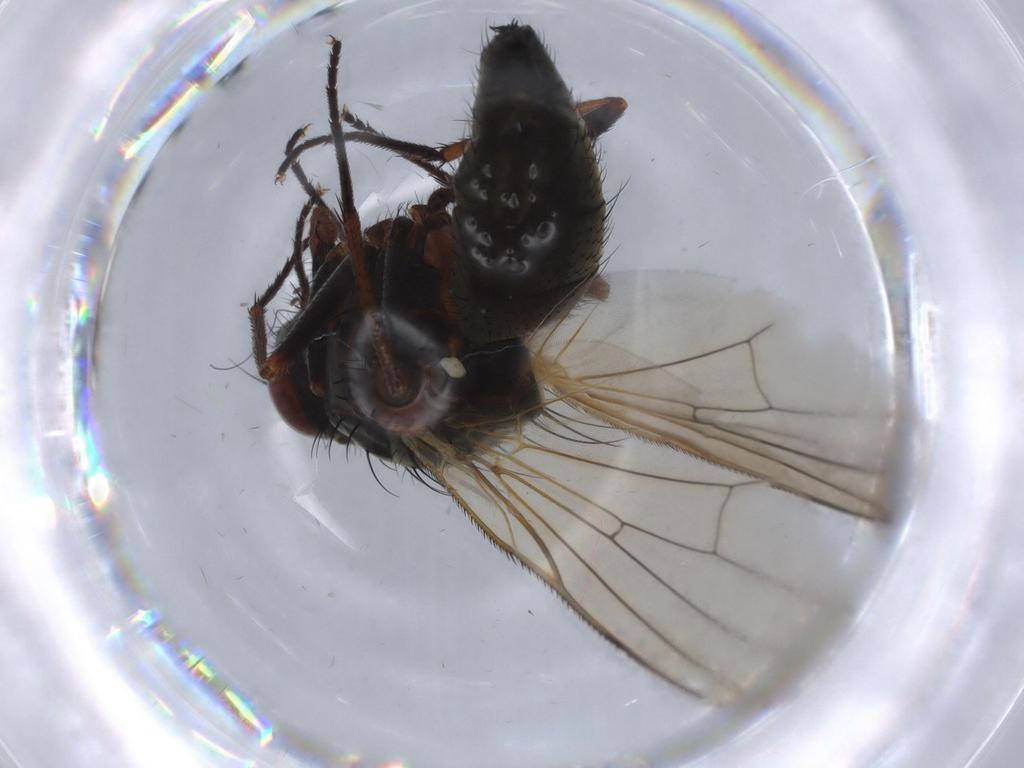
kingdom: Animalia
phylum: Arthropoda
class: Insecta
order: Diptera
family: Anthomyiidae
